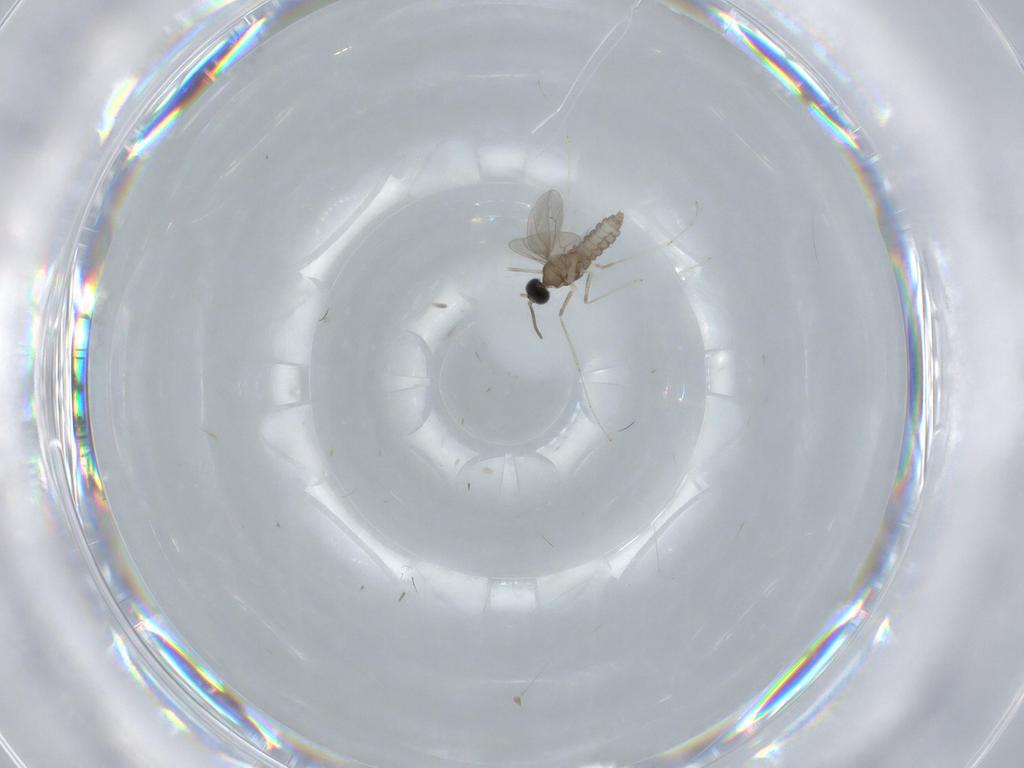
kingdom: Animalia
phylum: Arthropoda
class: Insecta
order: Diptera
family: Cecidomyiidae
